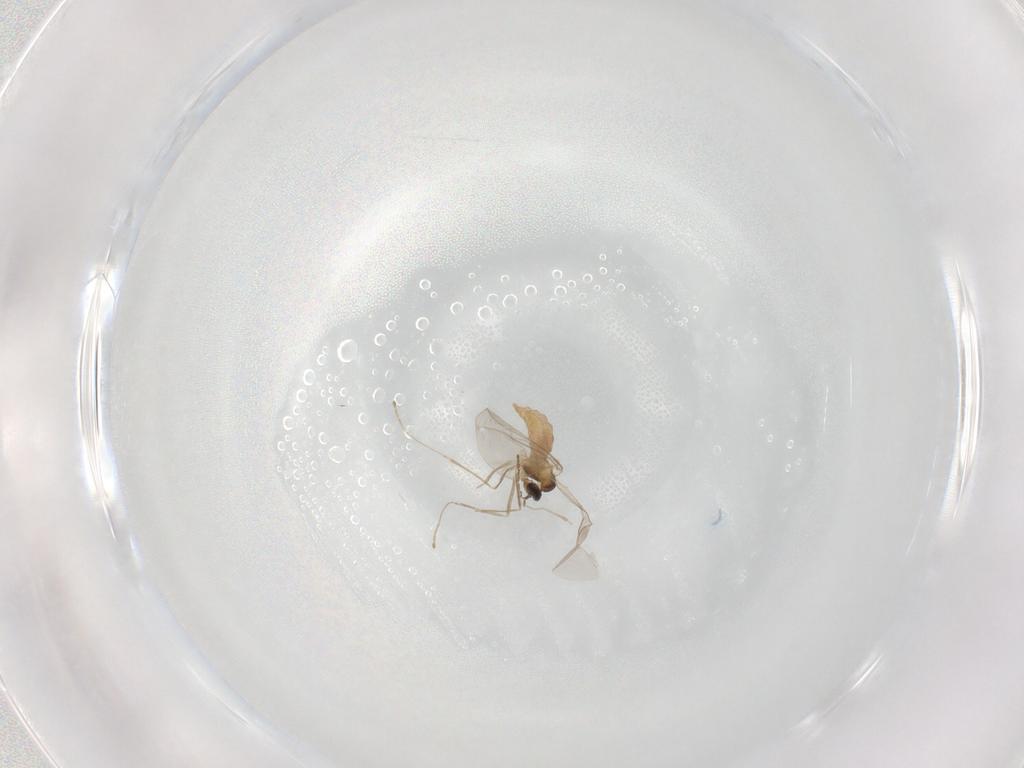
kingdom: Animalia
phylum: Arthropoda
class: Insecta
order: Diptera
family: Cecidomyiidae
